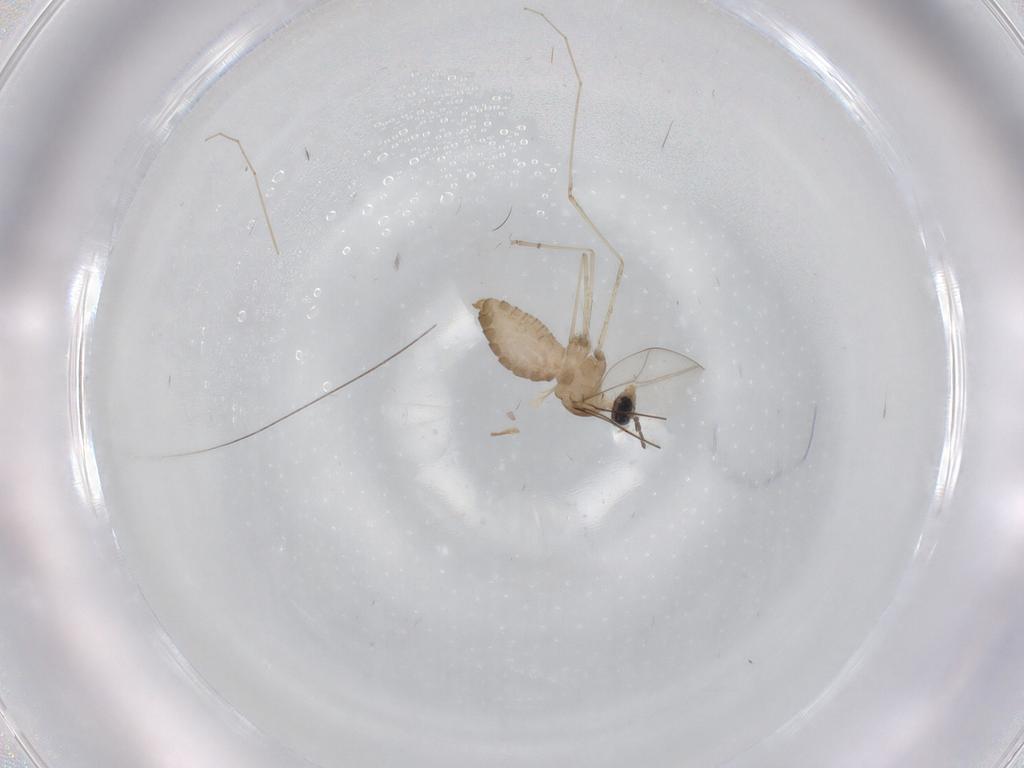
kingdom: Animalia
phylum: Arthropoda
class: Insecta
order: Diptera
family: Cecidomyiidae
